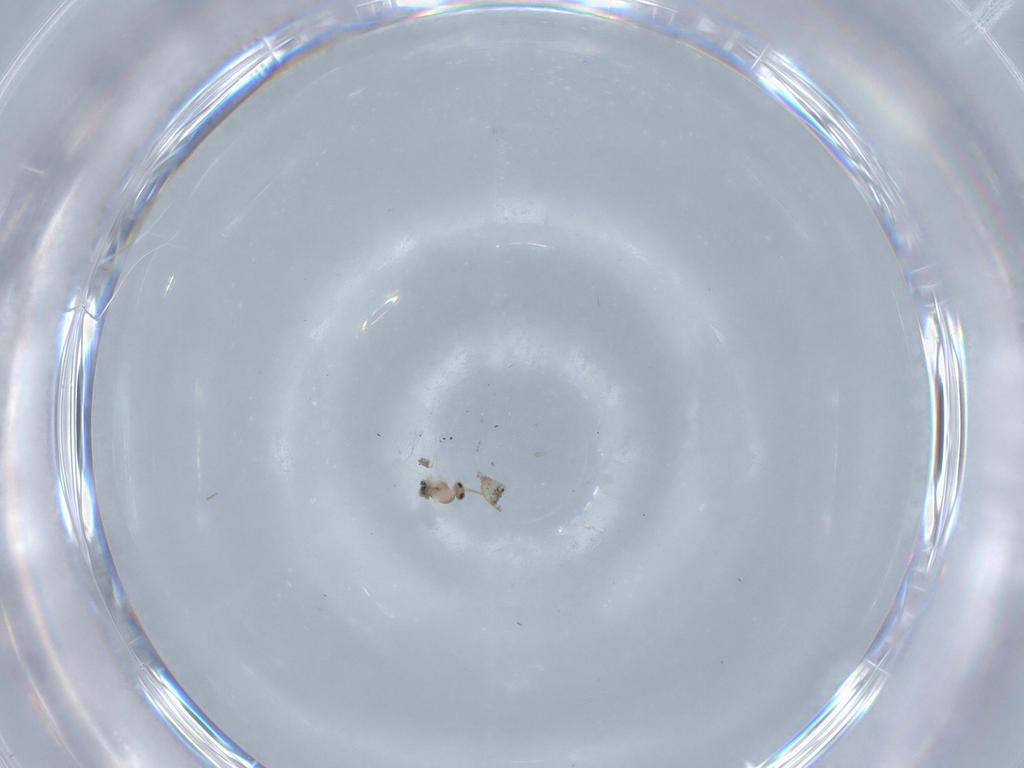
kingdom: Animalia
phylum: Arthropoda
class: Insecta
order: Diptera
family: Cecidomyiidae
